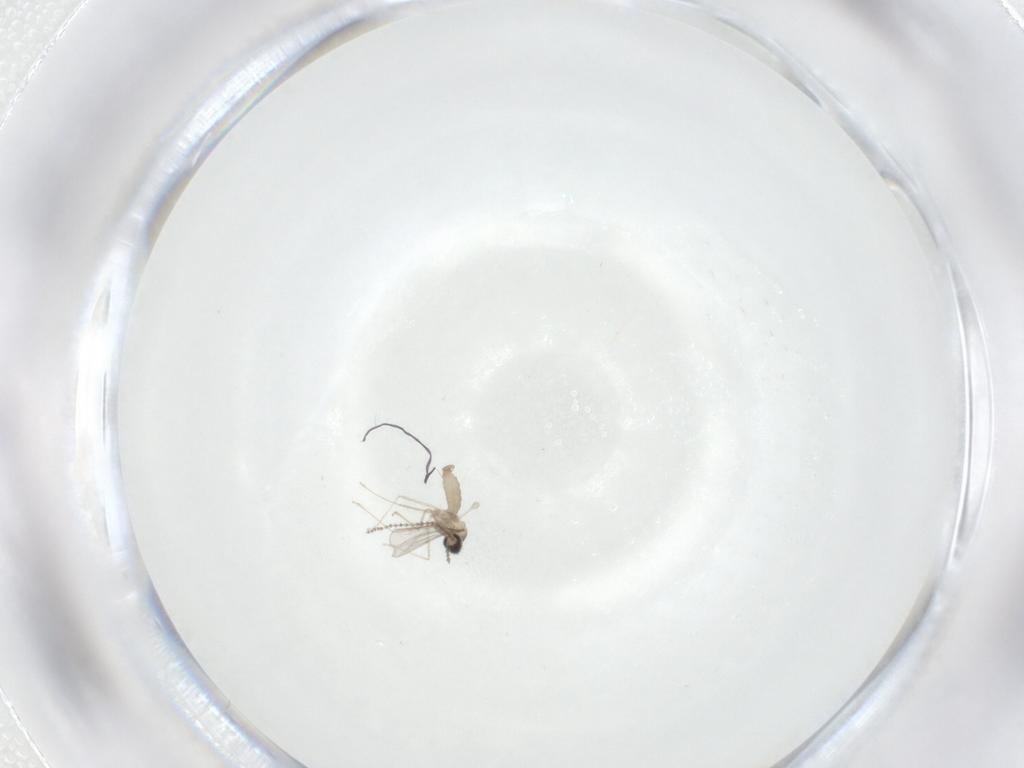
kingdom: Animalia
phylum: Arthropoda
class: Insecta
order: Diptera
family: Cecidomyiidae
